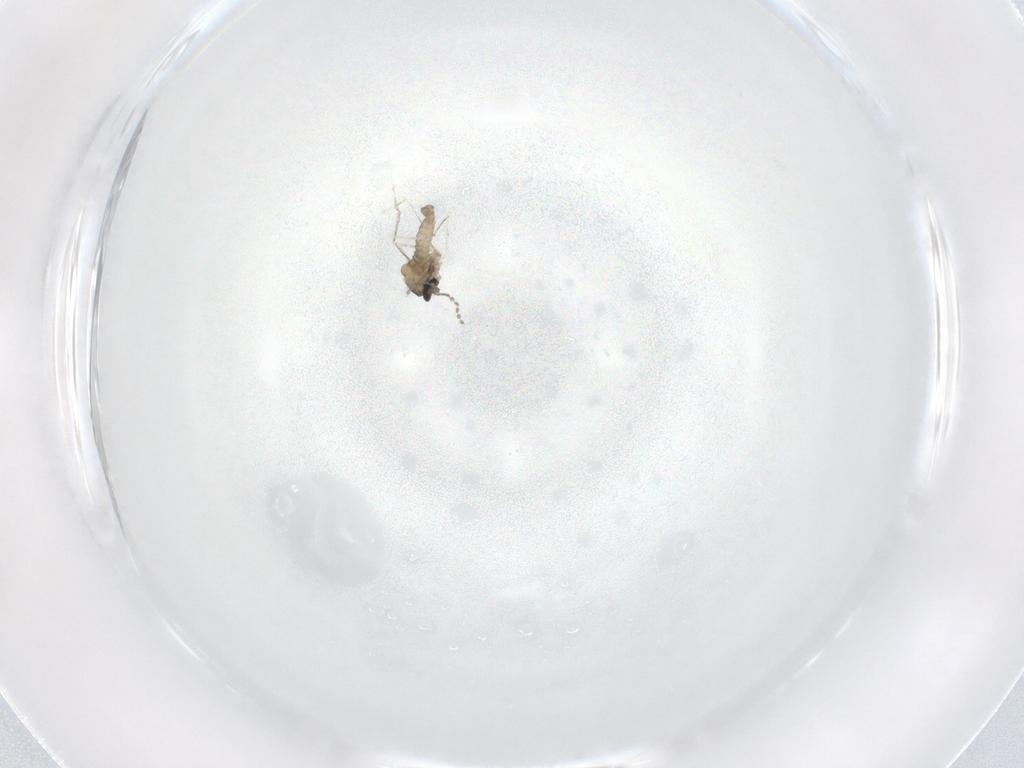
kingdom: Animalia
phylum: Arthropoda
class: Insecta
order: Diptera
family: Cecidomyiidae
